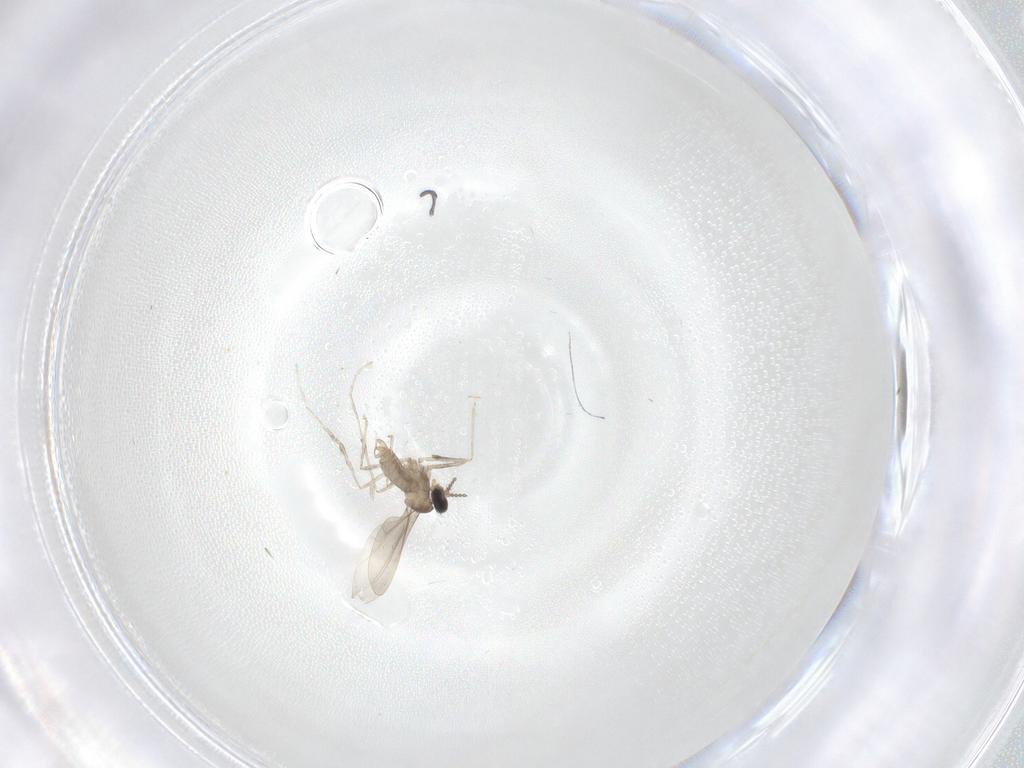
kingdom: Animalia
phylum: Arthropoda
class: Insecta
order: Diptera
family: Cecidomyiidae
